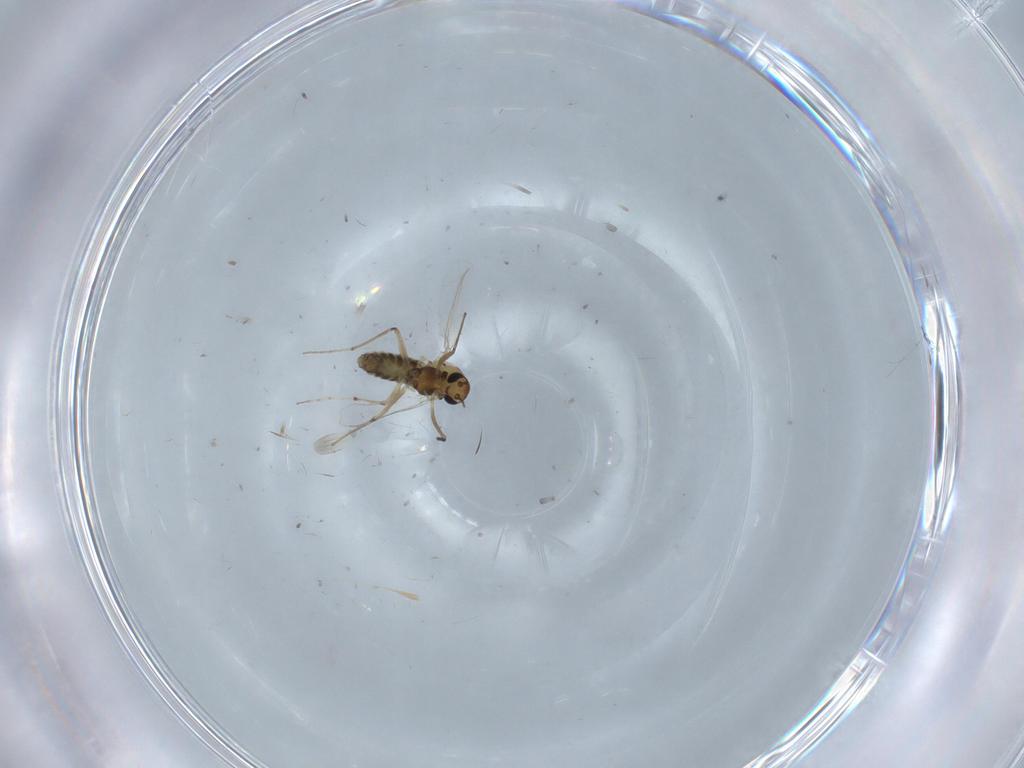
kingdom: Animalia
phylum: Arthropoda
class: Insecta
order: Diptera
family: Chironomidae
